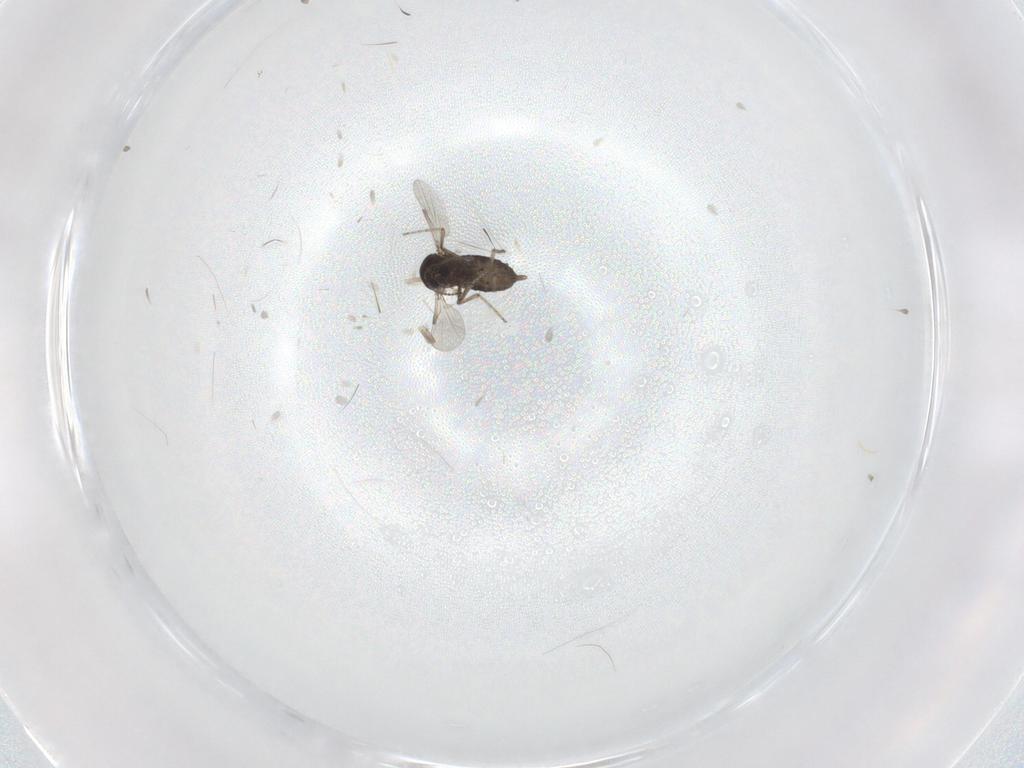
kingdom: Animalia
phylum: Arthropoda
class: Insecta
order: Diptera
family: Ceratopogonidae
